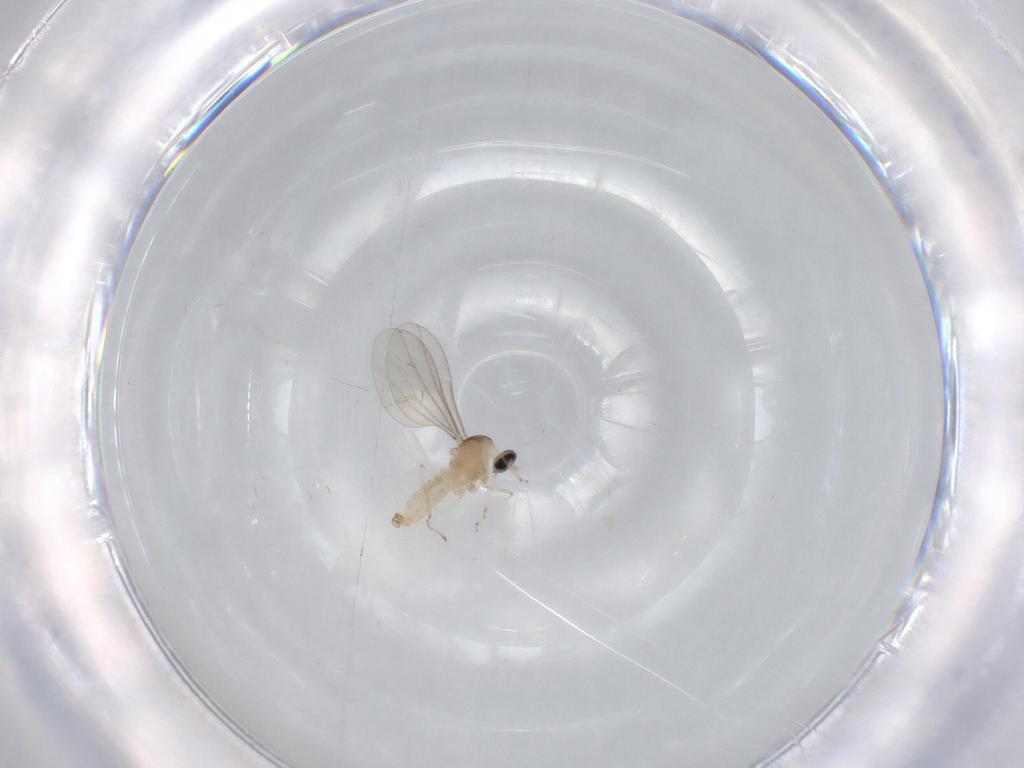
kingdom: Animalia
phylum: Arthropoda
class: Insecta
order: Diptera
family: Cecidomyiidae
